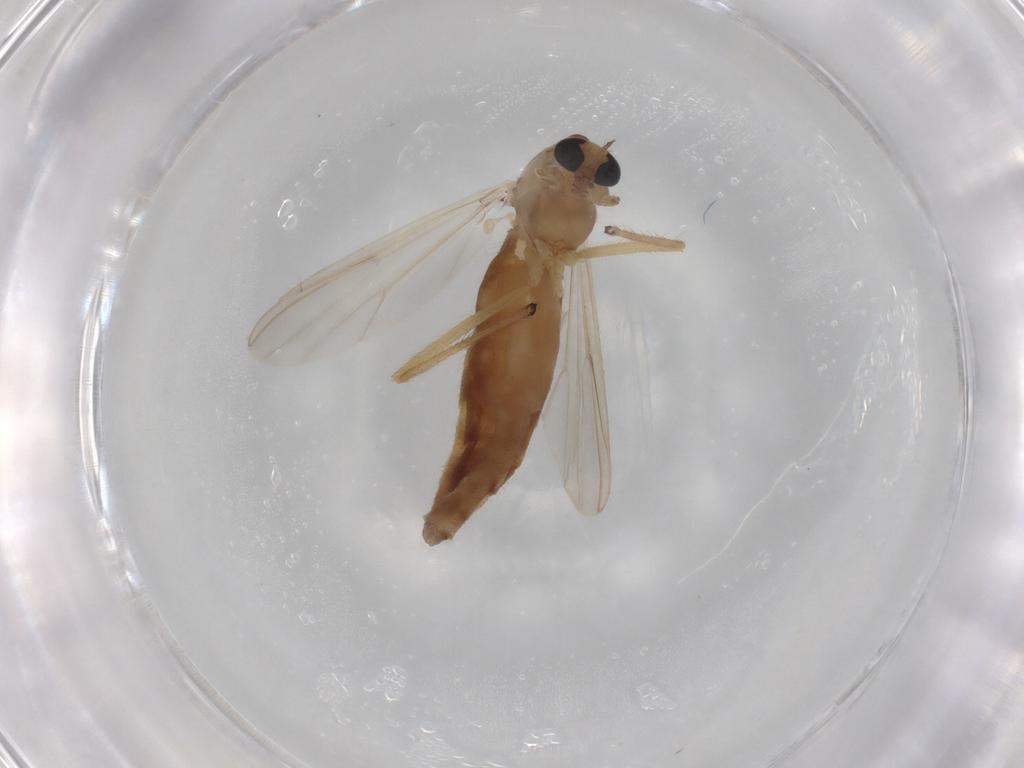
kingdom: Animalia
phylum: Arthropoda
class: Insecta
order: Diptera
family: Chironomidae
